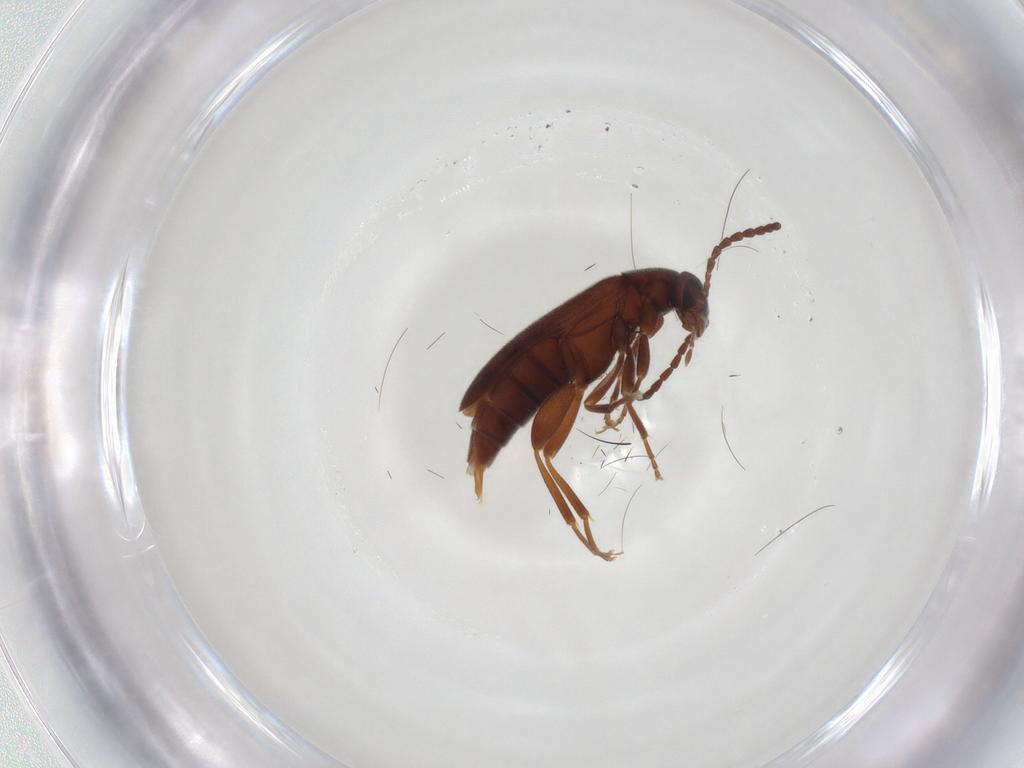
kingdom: Animalia
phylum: Arthropoda
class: Insecta
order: Coleoptera
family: Scraptiidae
